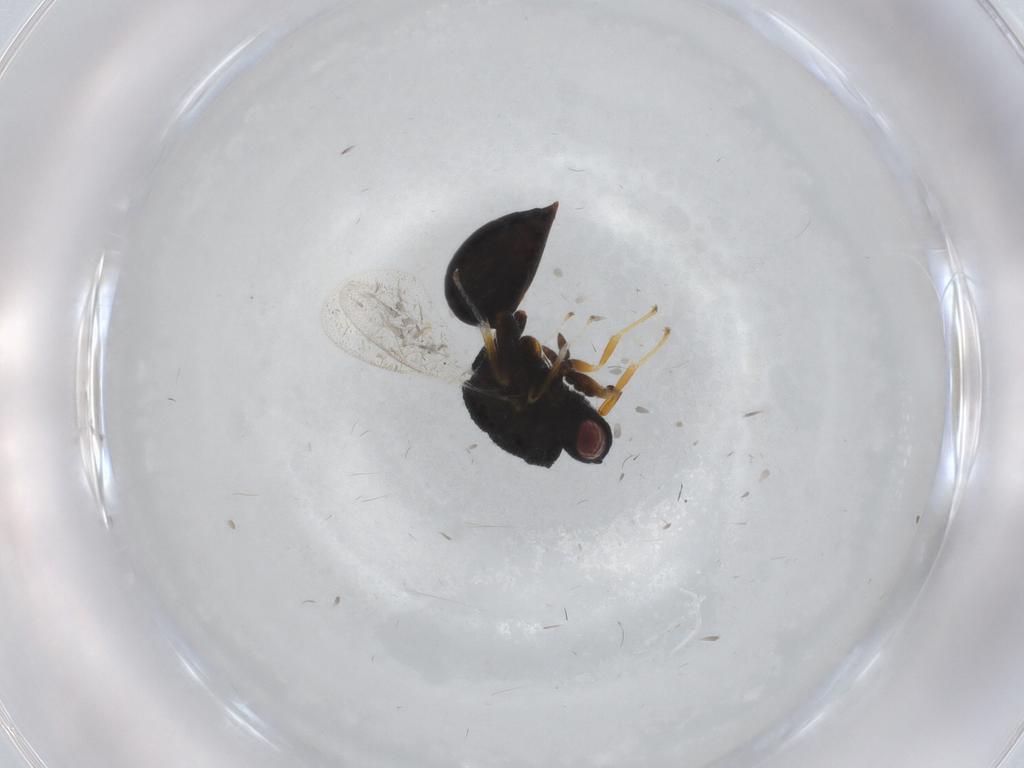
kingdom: Animalia
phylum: Arthropoda
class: Insecta
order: Hymenoptera
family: Eurytomidae
